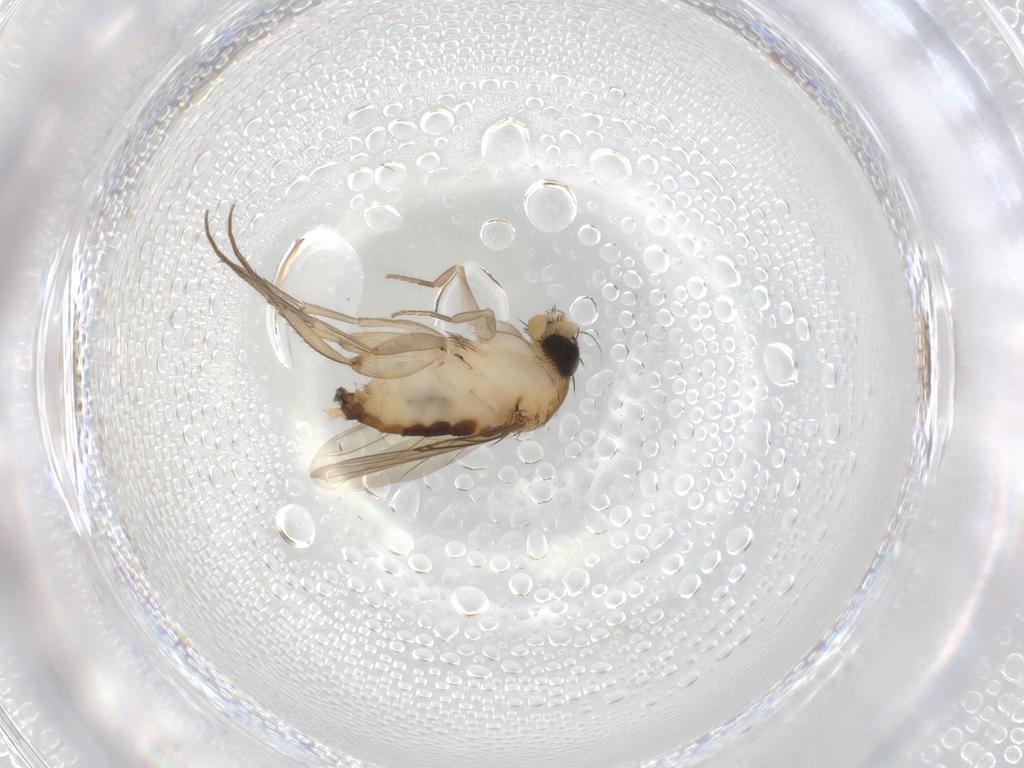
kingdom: Animalia
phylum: Arthropoda
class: Insecta
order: Diptera
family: Phoridae
